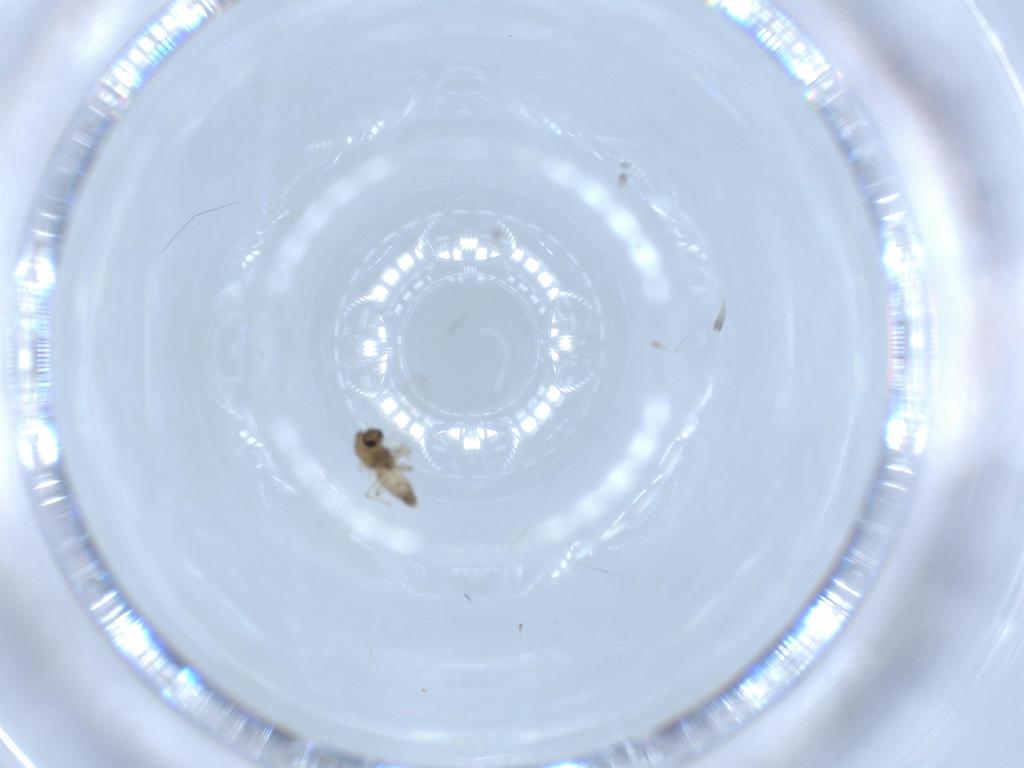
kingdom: Animalia
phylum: Arthropoda
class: Insecta
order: Diptera
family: Chironomidae
